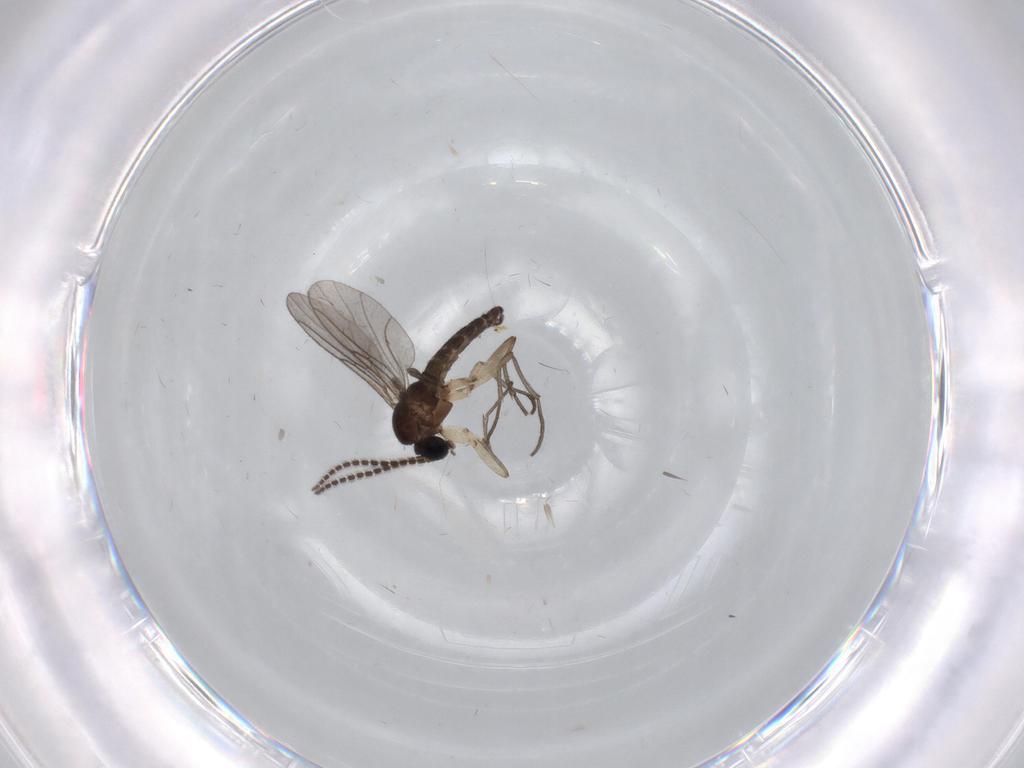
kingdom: Animalia
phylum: Arthropoda
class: Insecta
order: Diptera
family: Sciaridae
